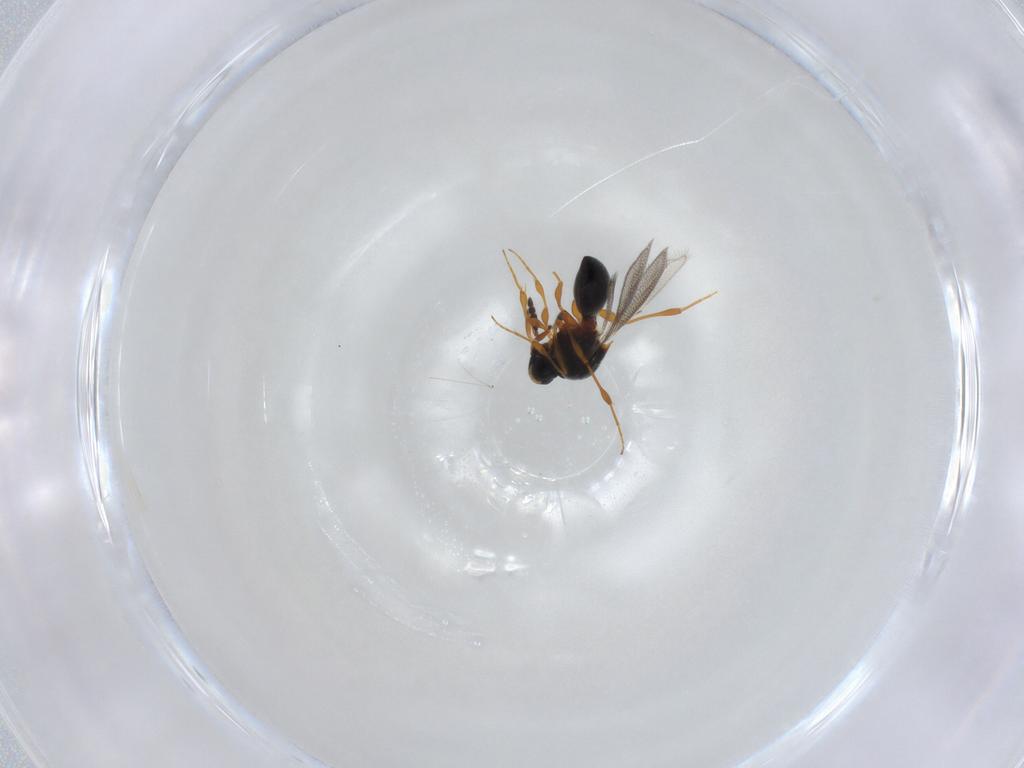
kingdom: Animalia
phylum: Arthropoda
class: Insecta
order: Hymenoptera
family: Platygastridae
